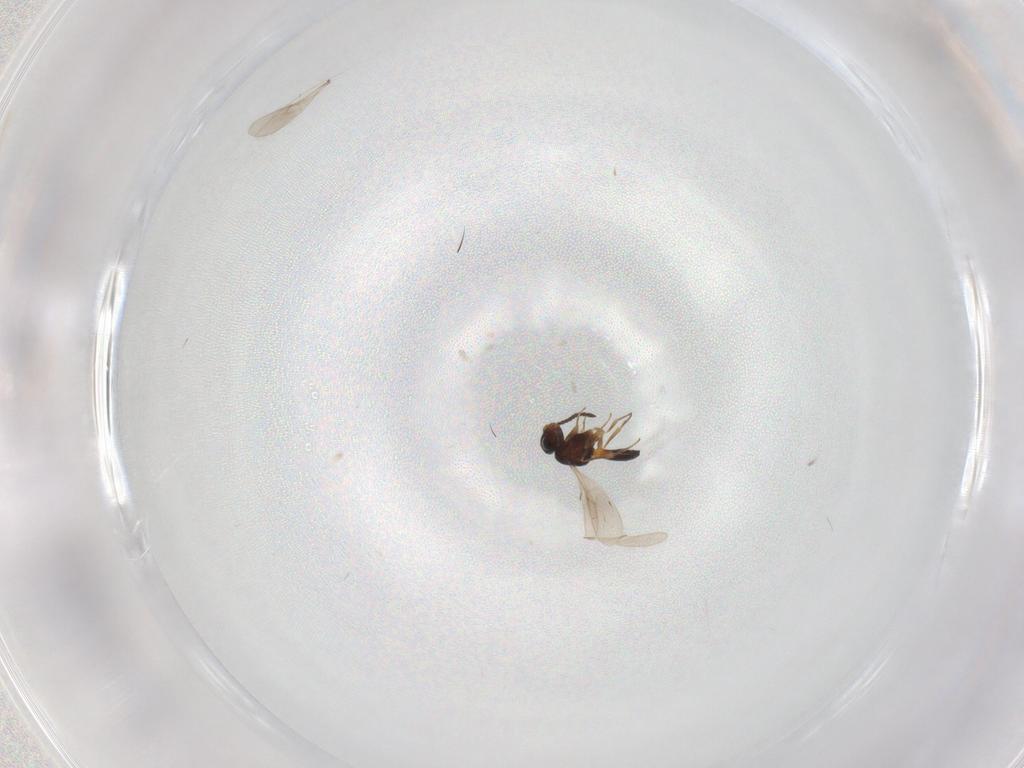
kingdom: Animalia
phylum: Arthropoda
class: Insecta
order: Hymenoptera
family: Scelionidae
